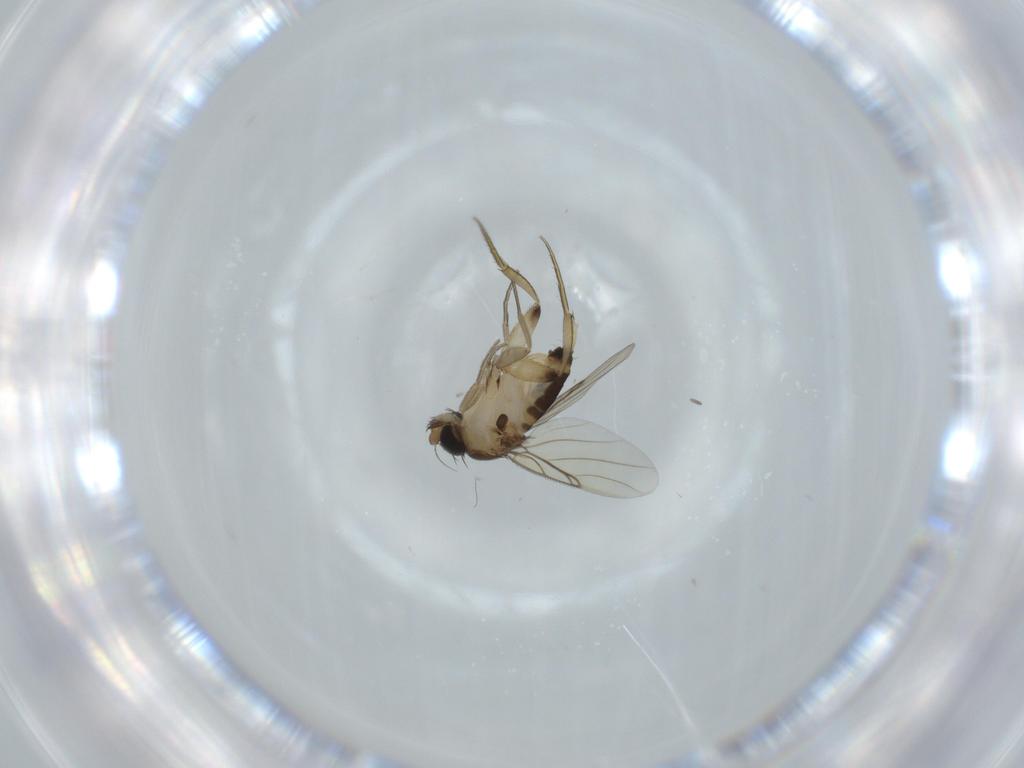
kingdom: Animalia
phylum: Arthropoda
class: Insecta
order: Diptera
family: Phoridae
